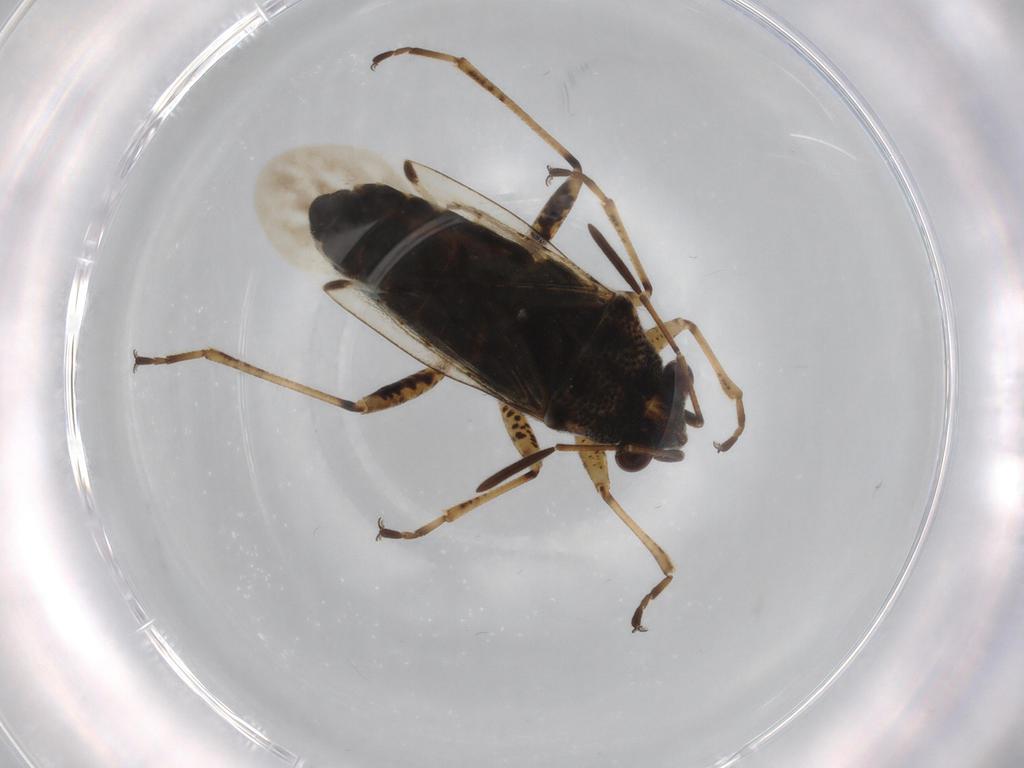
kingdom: Animalia
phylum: Arthropoda
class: Insecta
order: Hemiptera
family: Lygaeidae
